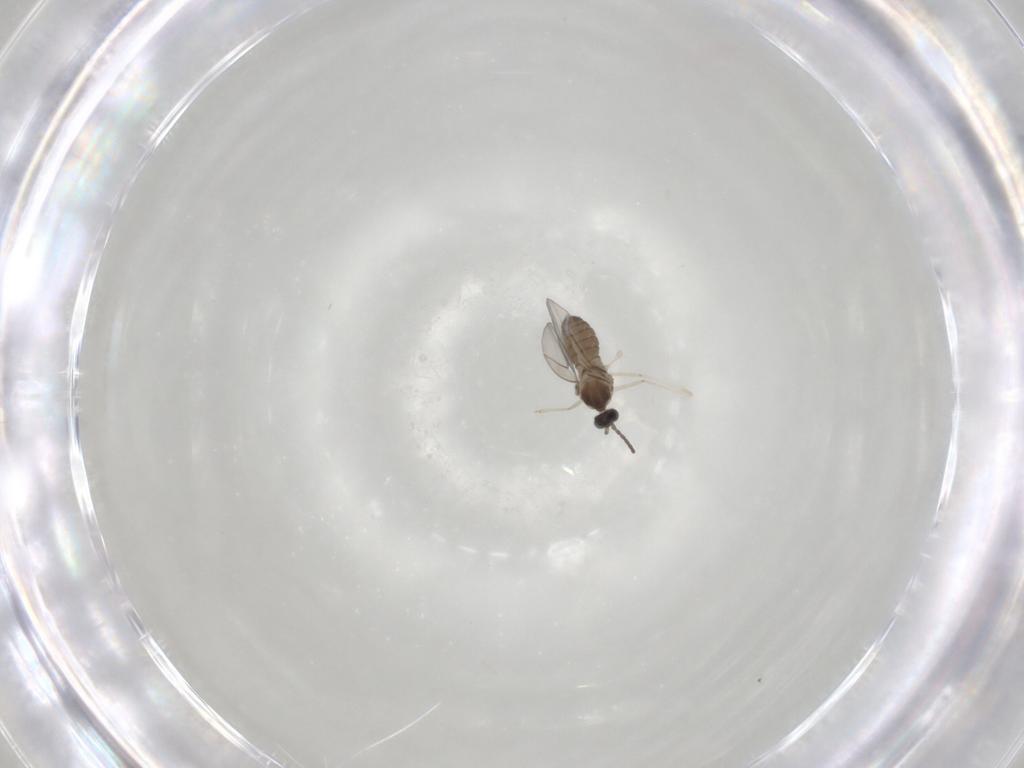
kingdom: Animalia
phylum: Arthropoda
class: Insecta
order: Diptera
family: Cecidomyiidae
